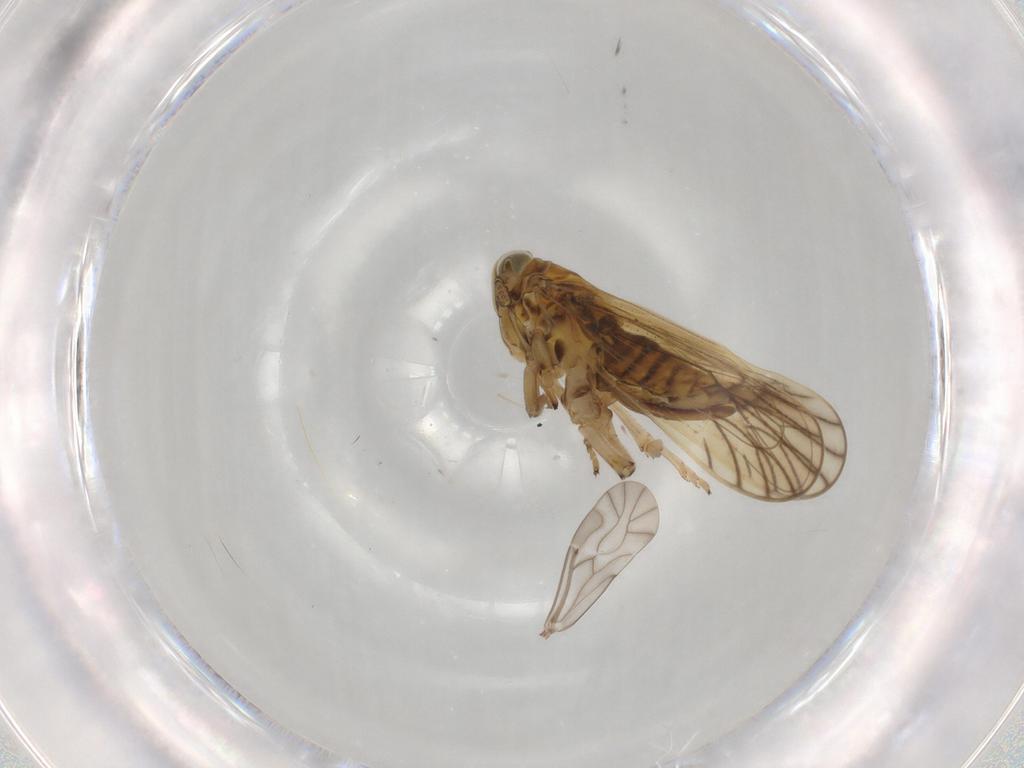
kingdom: Animalia
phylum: Arthropoda
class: Insecta
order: Hemiptera
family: Delphacidae
